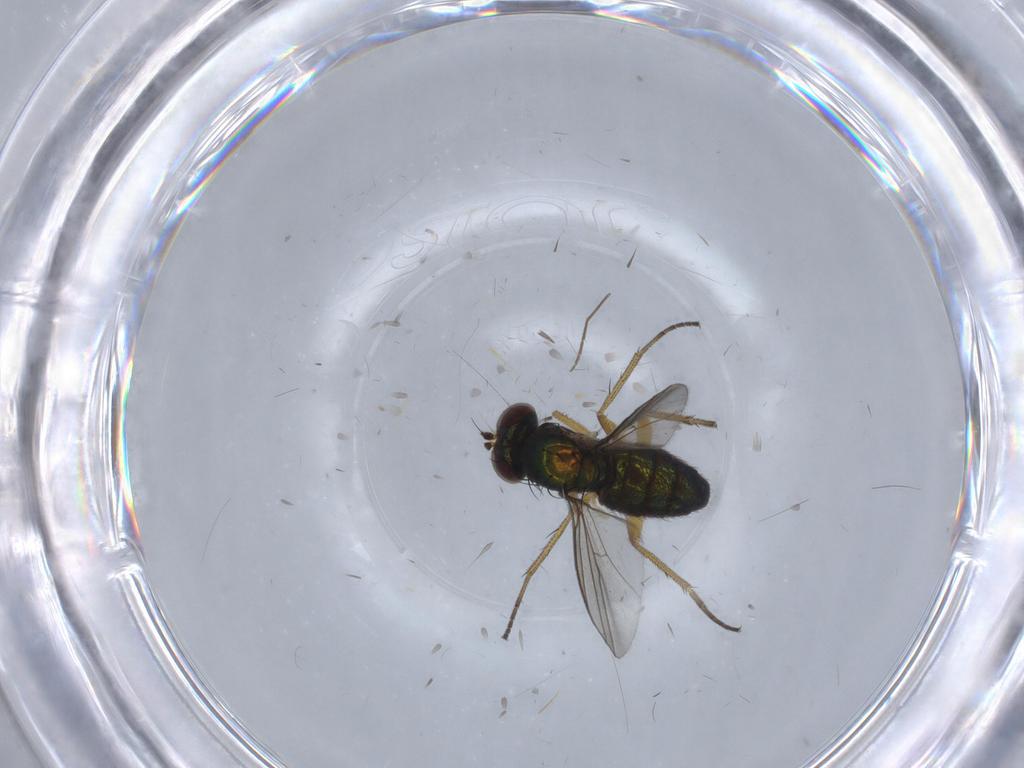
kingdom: Animalia
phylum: Arthropoda
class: Insecta
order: Diptera
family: Dolichopodidae
